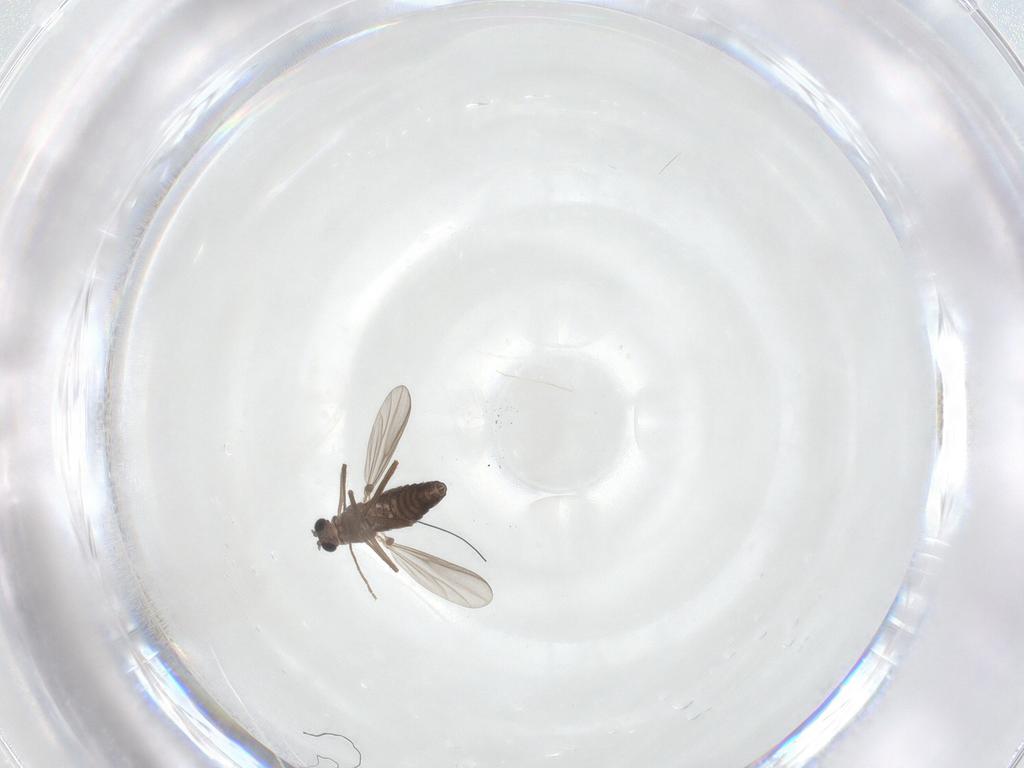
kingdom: Animalia
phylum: Arthropoda
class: Insecta
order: Diptera
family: Chironomidae
